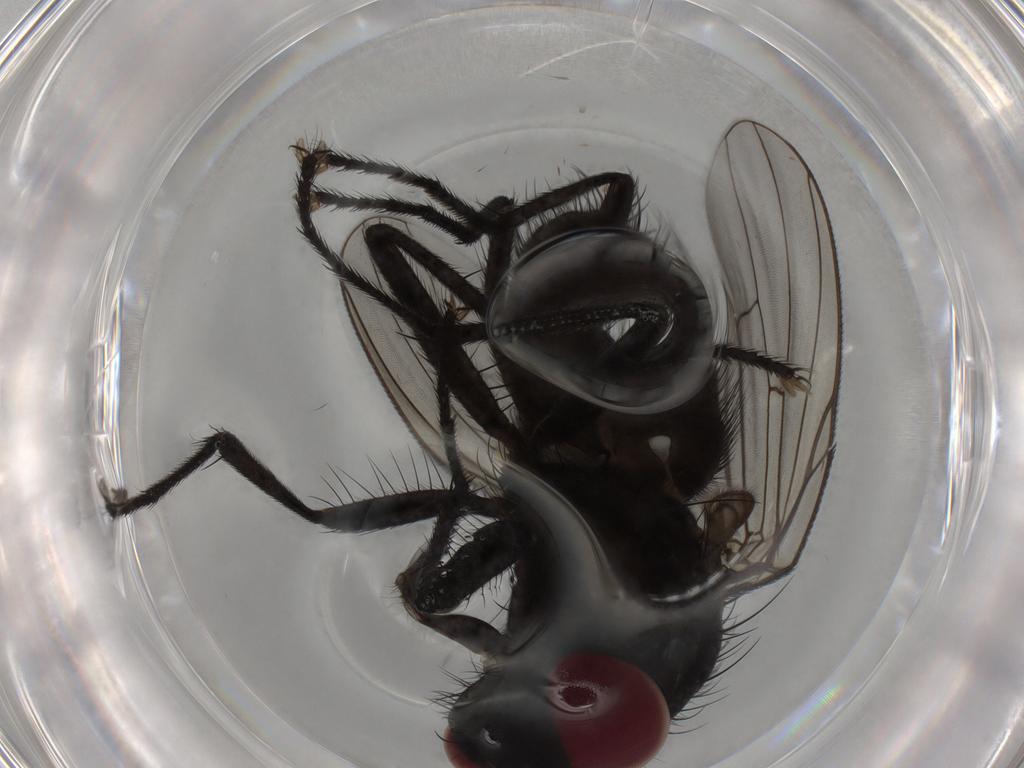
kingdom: Animalia
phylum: Arthropoda
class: Insecta
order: Diptera
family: Muscidae
